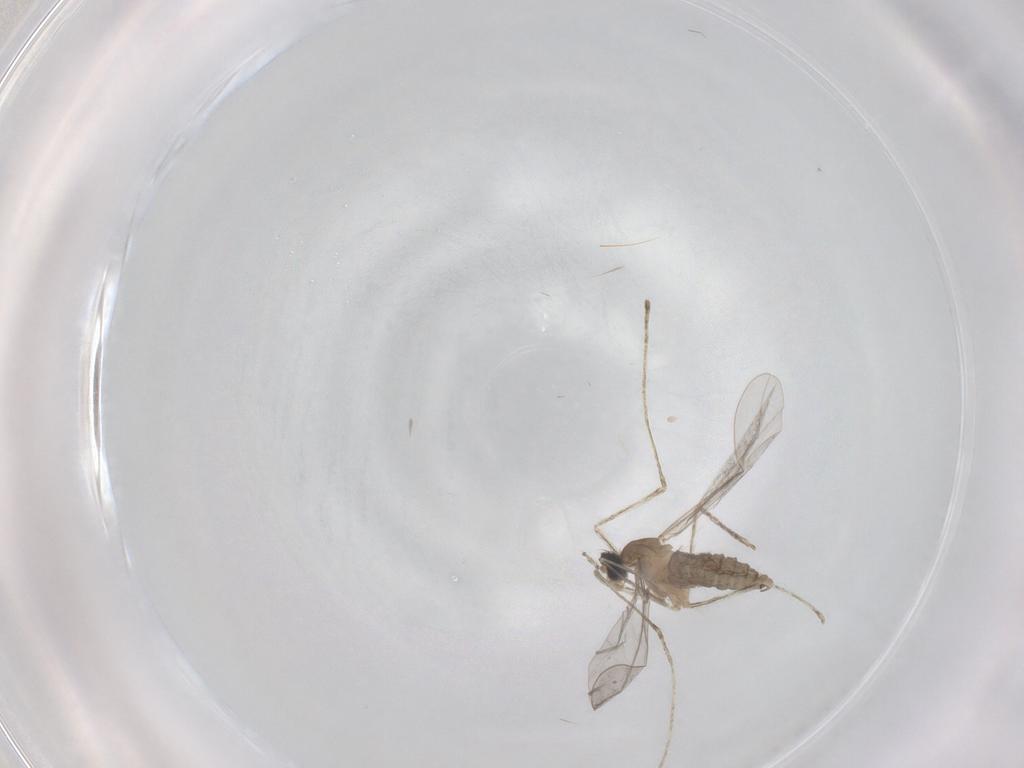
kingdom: Animalia
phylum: Arthropoda
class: Insecta
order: Diptera
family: Cecidomyiidae
